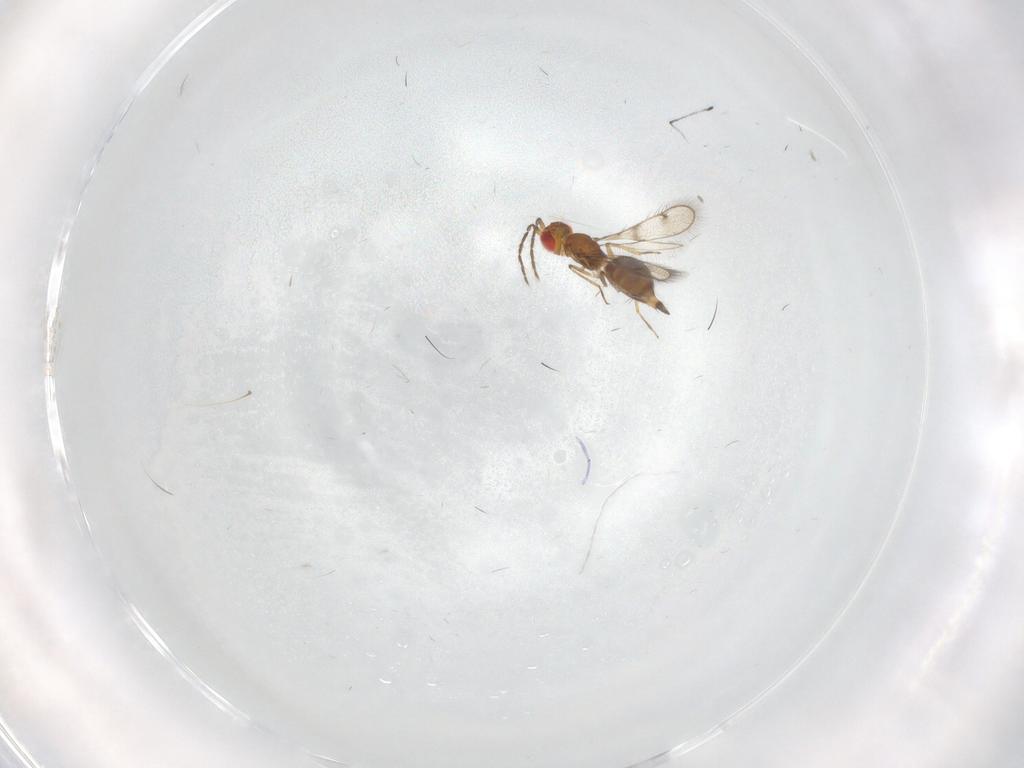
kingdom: Animalia
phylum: Arthropoda
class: Insecta
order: Hymenoptera
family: Eulophidae
